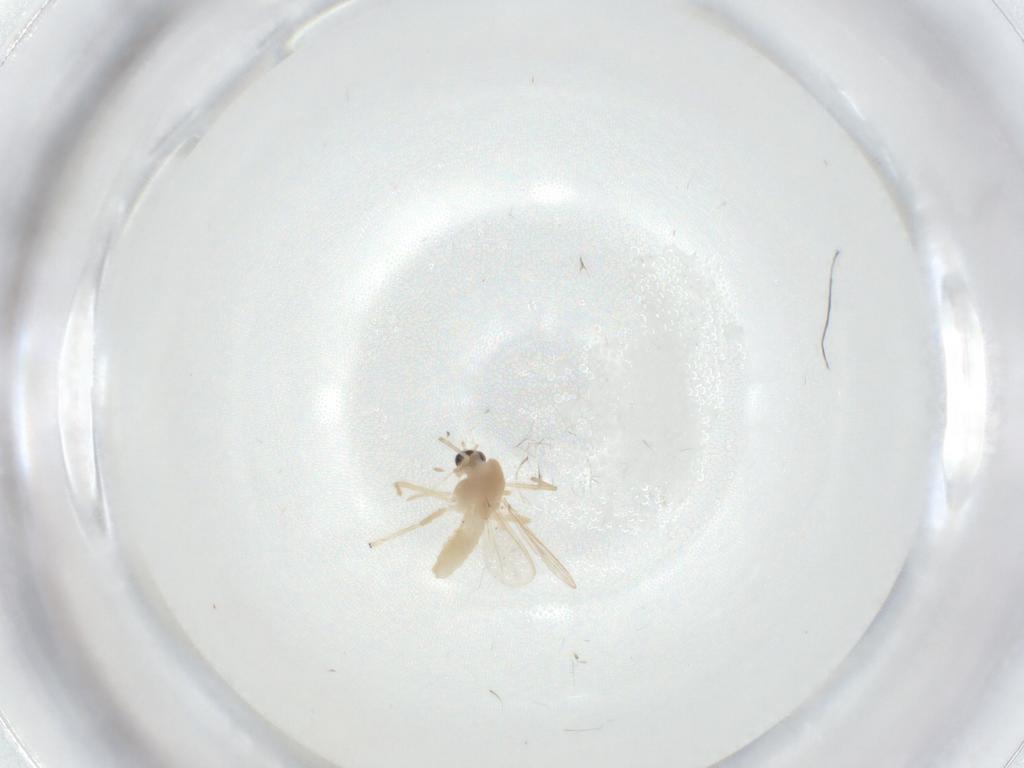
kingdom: Animalia
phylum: Arthropoda
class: Insecta
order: Diptera
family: Chironomidae
